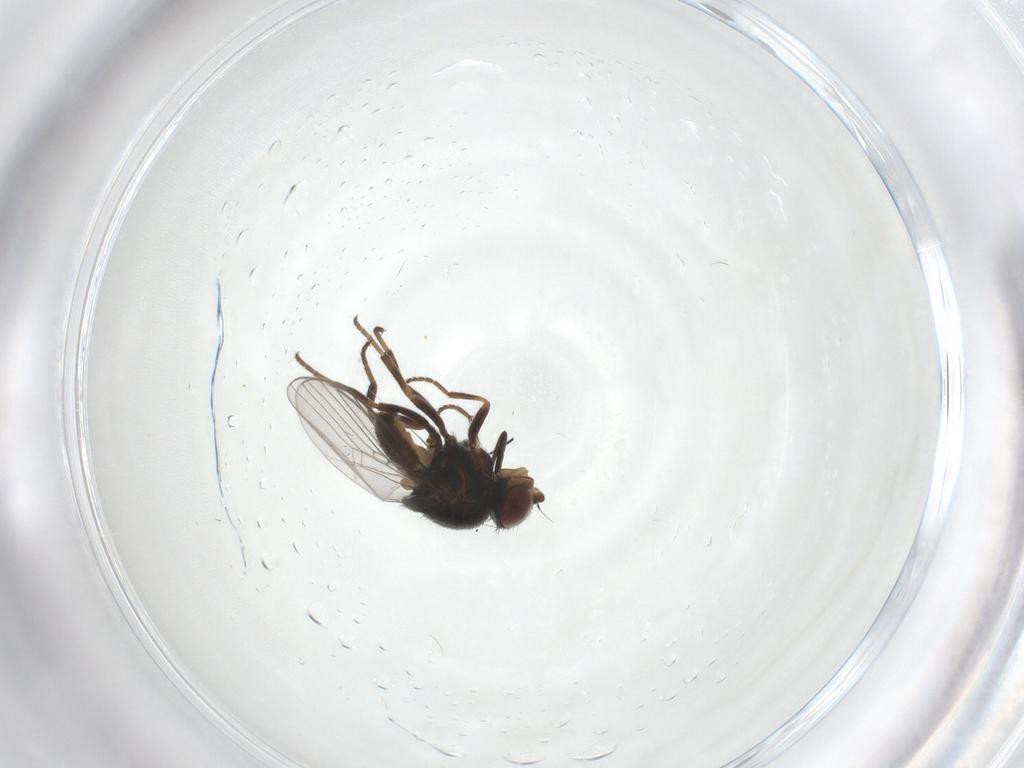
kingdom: Animalia
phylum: Arthropoda
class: Insecta
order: Diptera
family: Chloropidae
